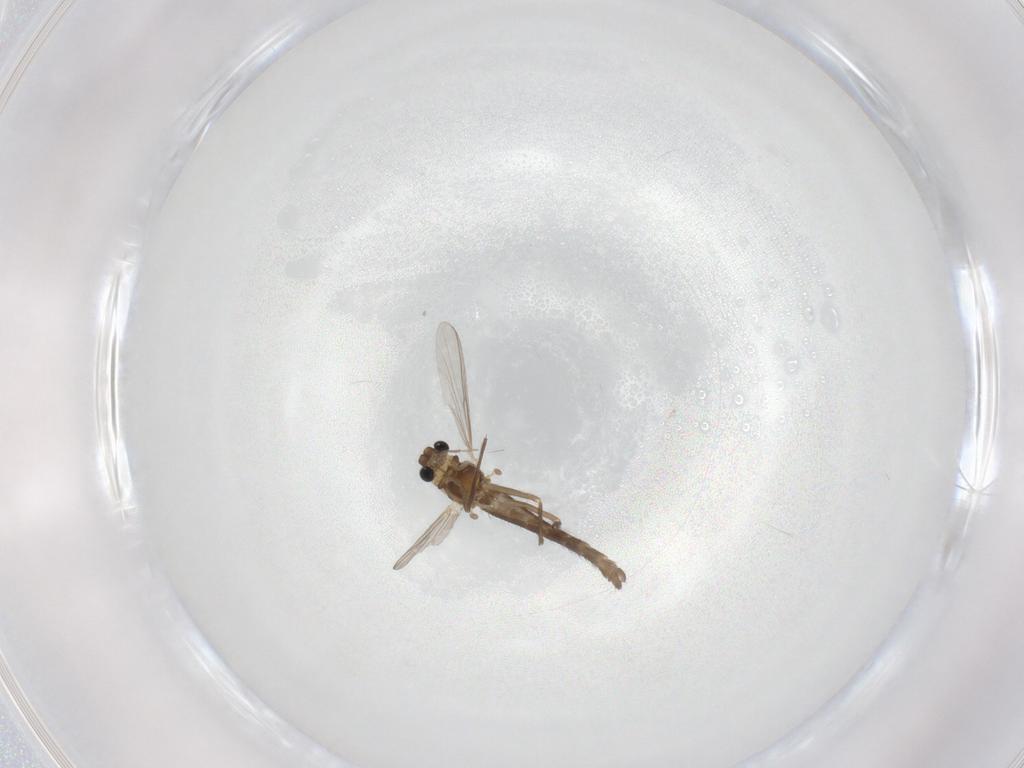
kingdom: Animalia
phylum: Arthropoda
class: Insecta
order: Diptera
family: Chironomidae
